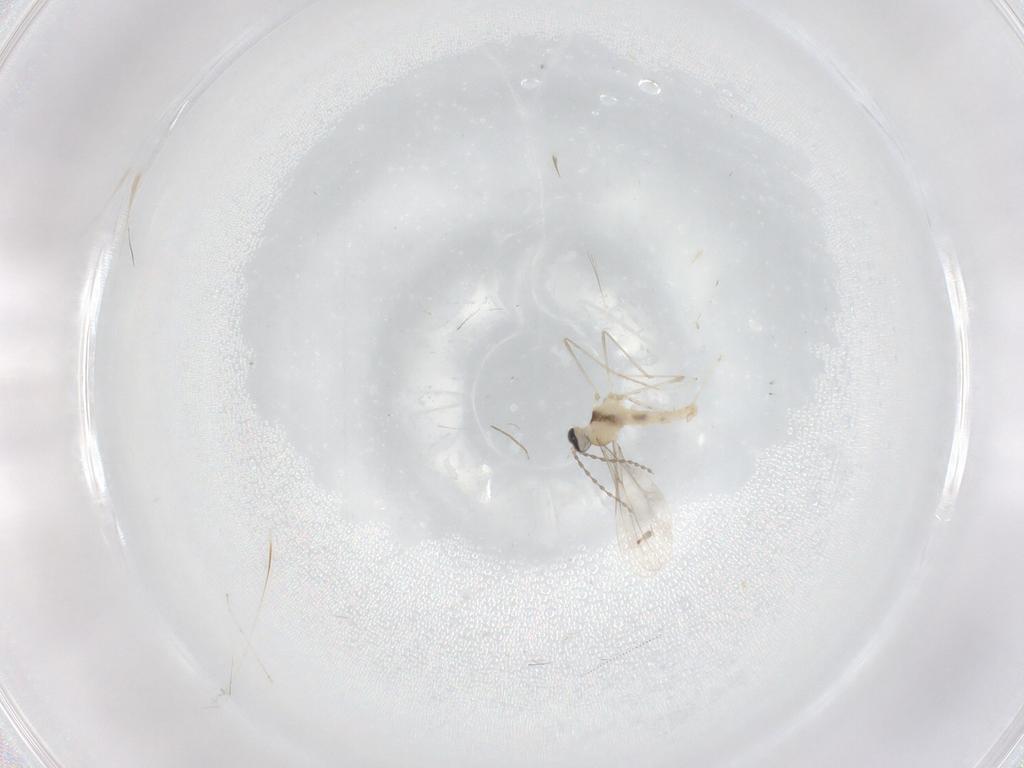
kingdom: Animalia
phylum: Arthropoda
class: Insecta
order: Diptera
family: Cecidomyiidae
